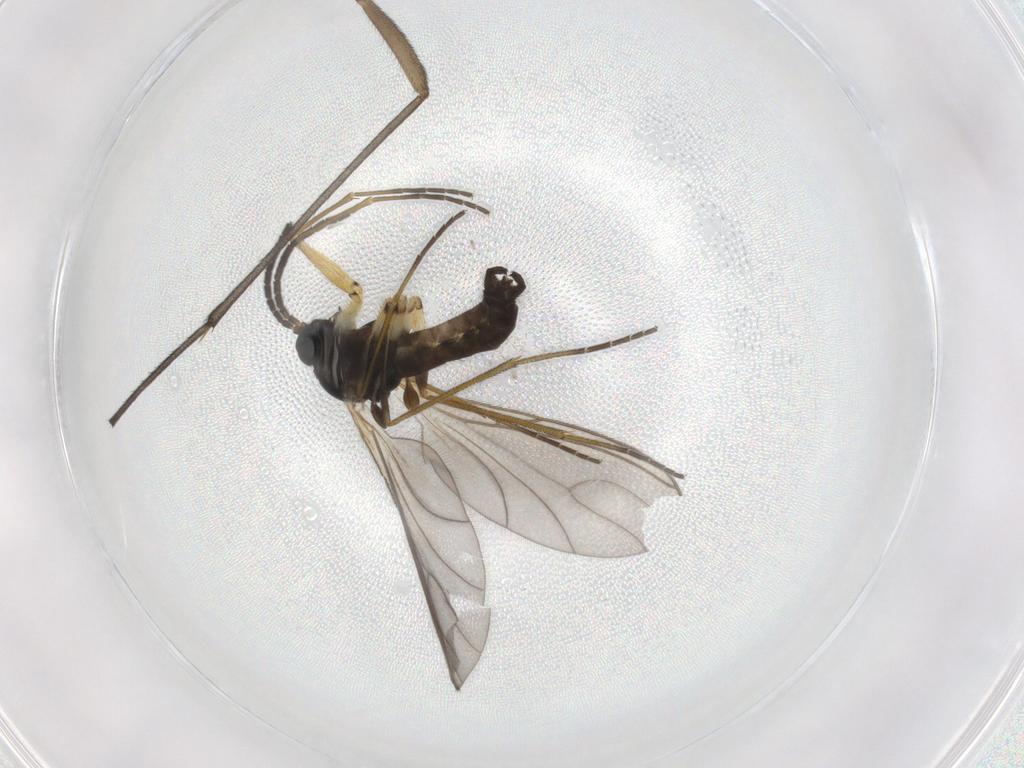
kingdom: Animalia
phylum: Arthropoda
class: Insecta
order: Diptera
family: Sciaridae
